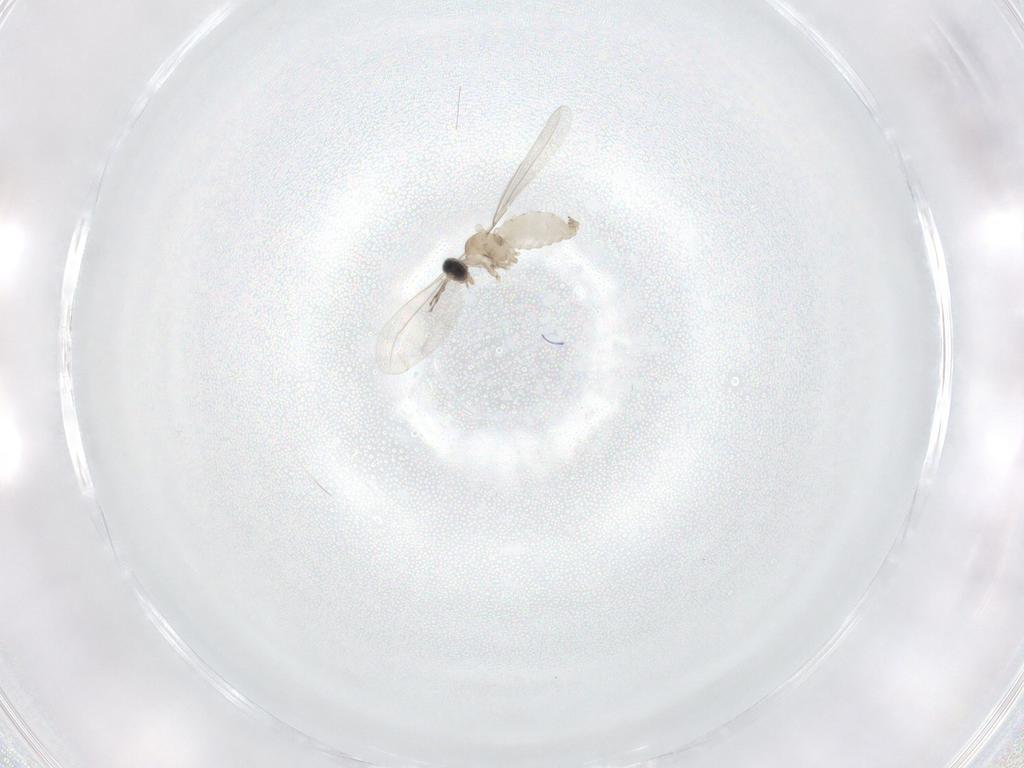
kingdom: Animalia
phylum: Arthropoda
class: Insecta
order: Diptera
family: Cecidomyiidae
